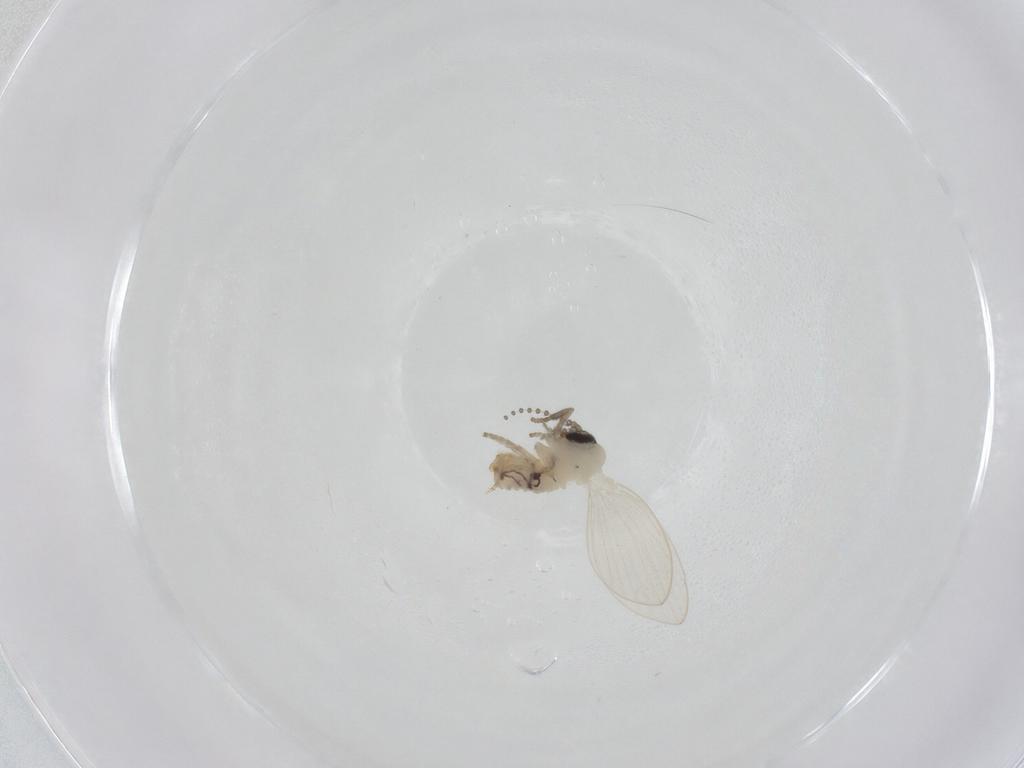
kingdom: Animalia
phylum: Arthropoda
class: Insecta
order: Diptera
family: Psychodidae
